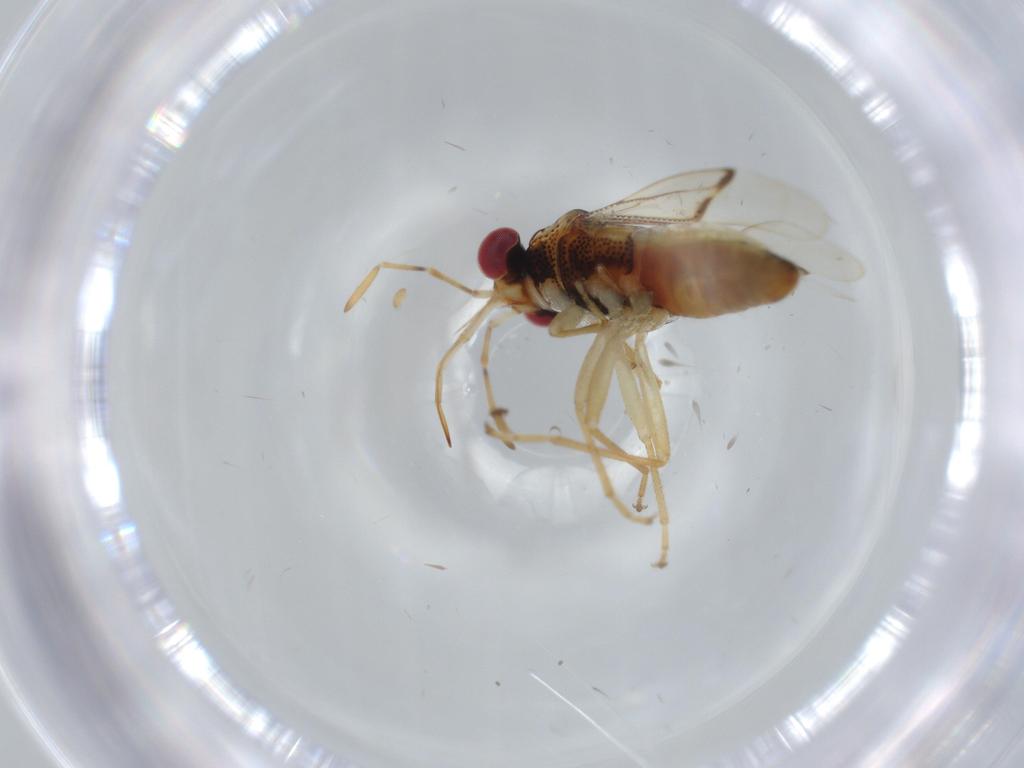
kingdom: Animalia
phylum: Arthropoda
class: Insecta
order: Hemiptera
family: Geocoridae
